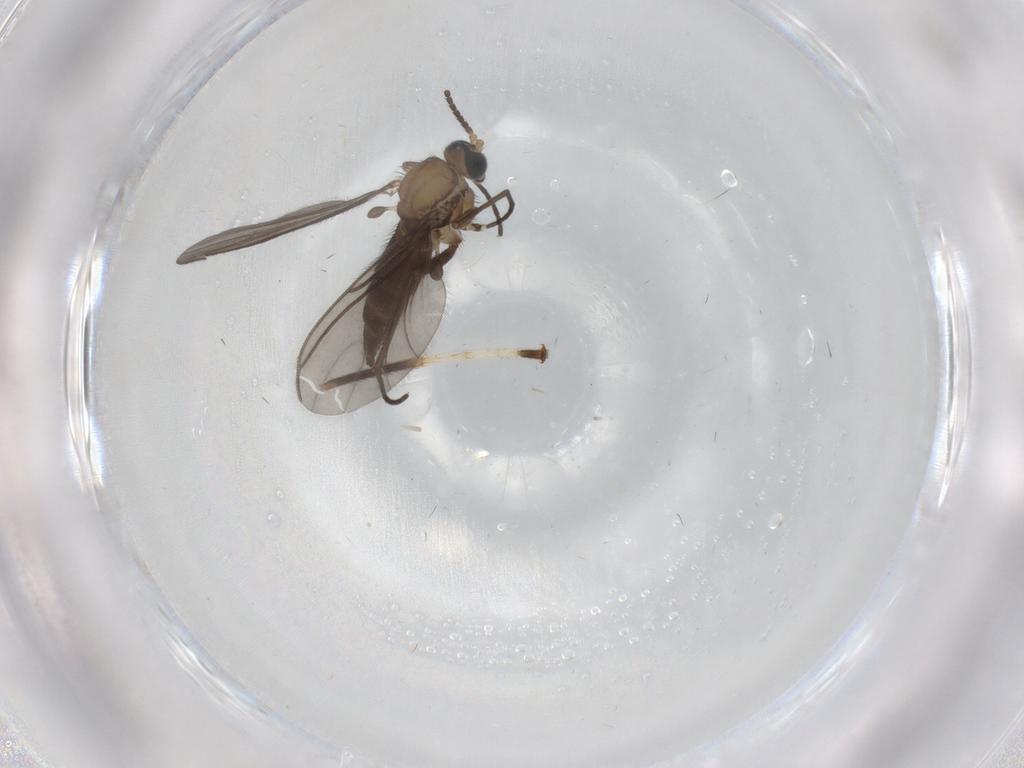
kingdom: Animalia
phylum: Arthropoda
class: Insecta
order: Diptera
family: Sciaridae
